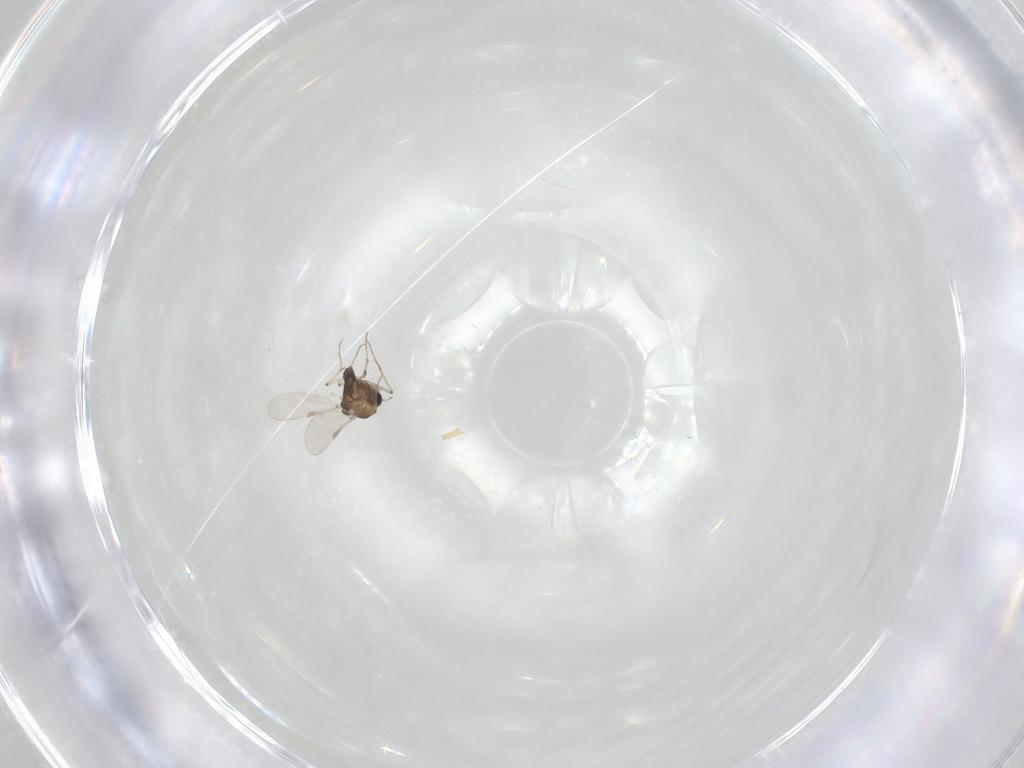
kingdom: Animalia
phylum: Arthropoda
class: Insecta
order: Diptera
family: Chironomidae
